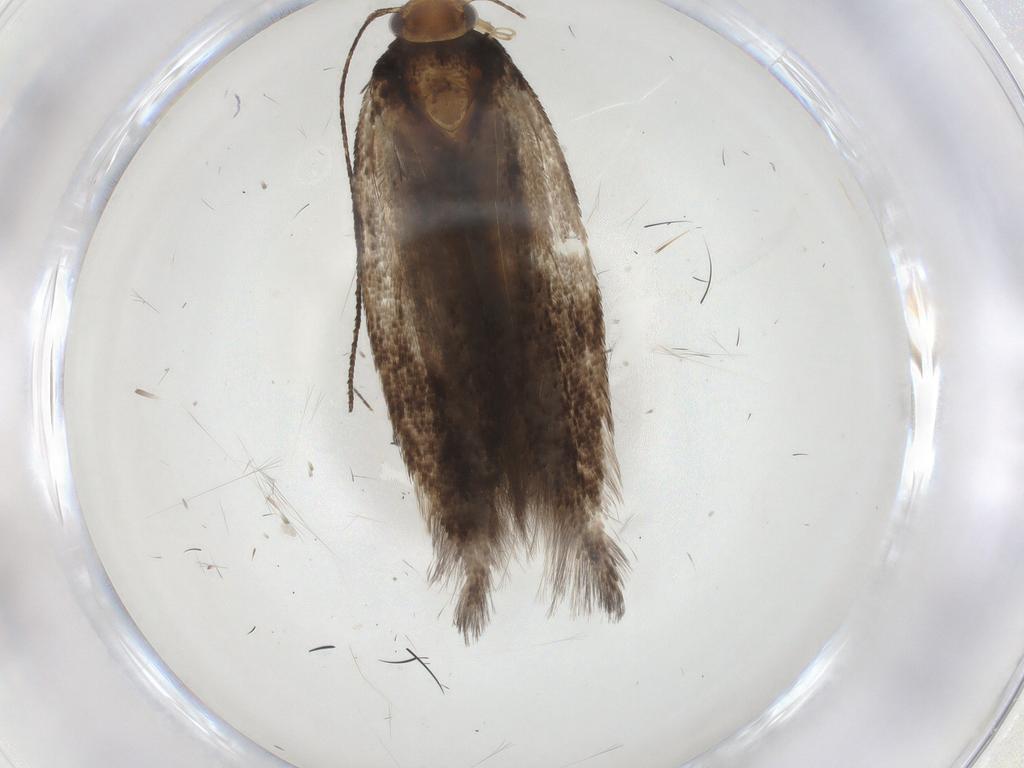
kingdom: Animalia
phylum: Arthropoda
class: Insecta
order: Lepidoptera
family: Gelechiidae
